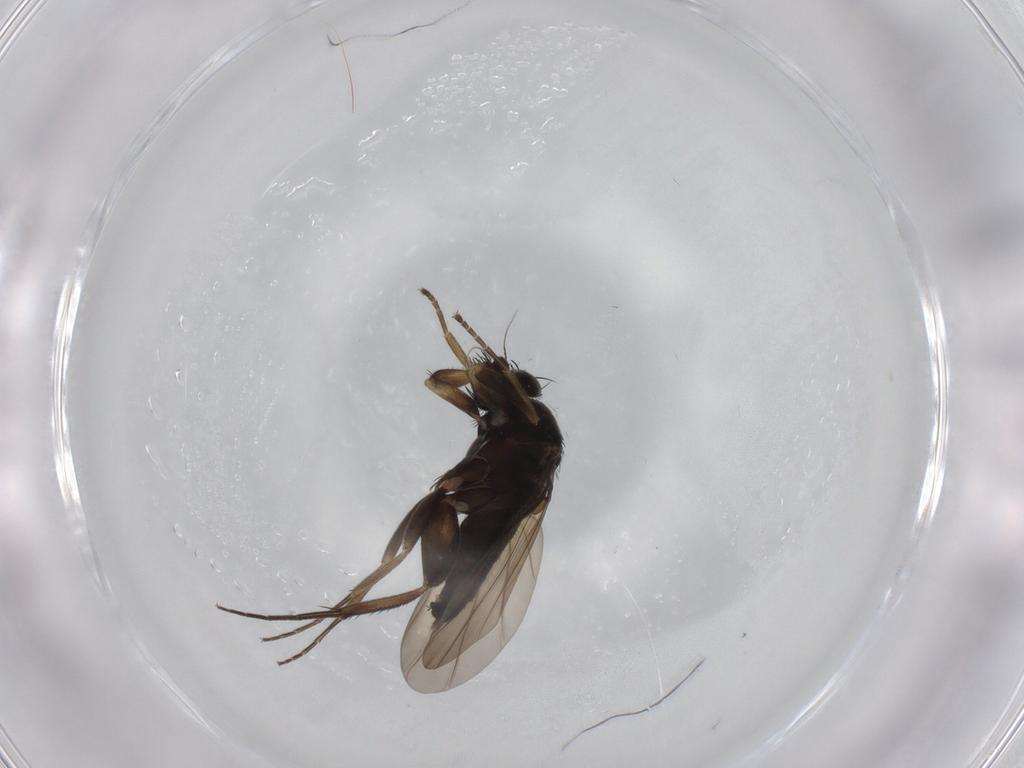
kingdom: Animalia
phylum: Arthropoda
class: Insecta
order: Diptera
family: Phoridae
